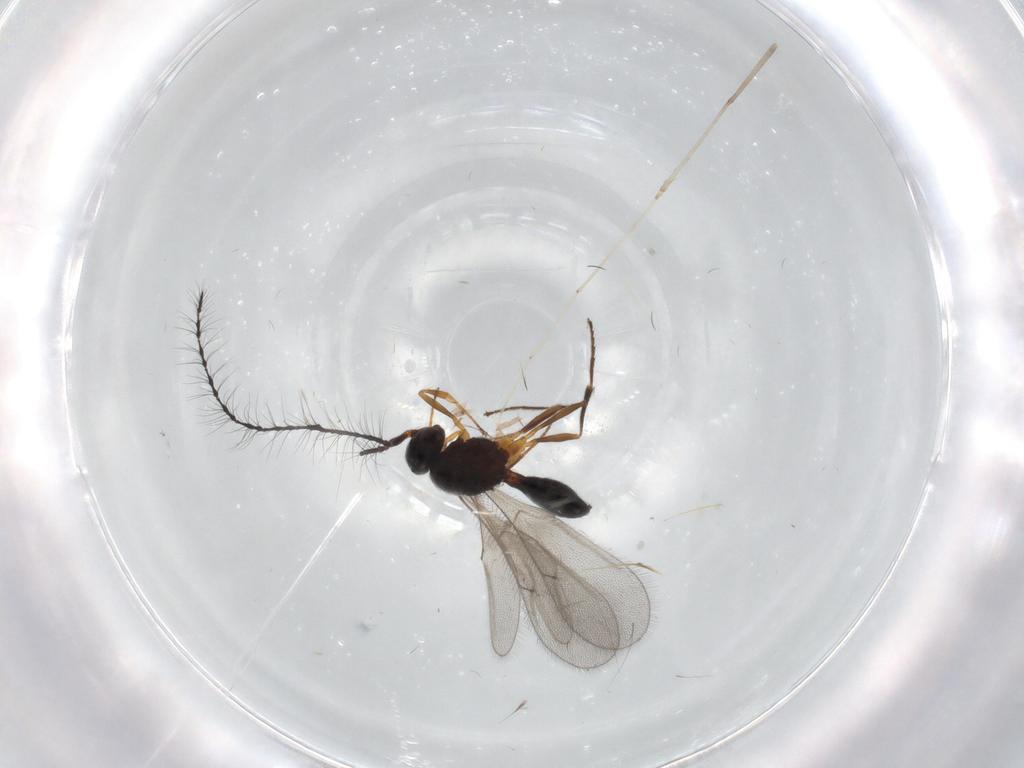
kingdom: Animalia
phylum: Arthropoda
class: Insecta
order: Hymenoptera
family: Scelionidae
